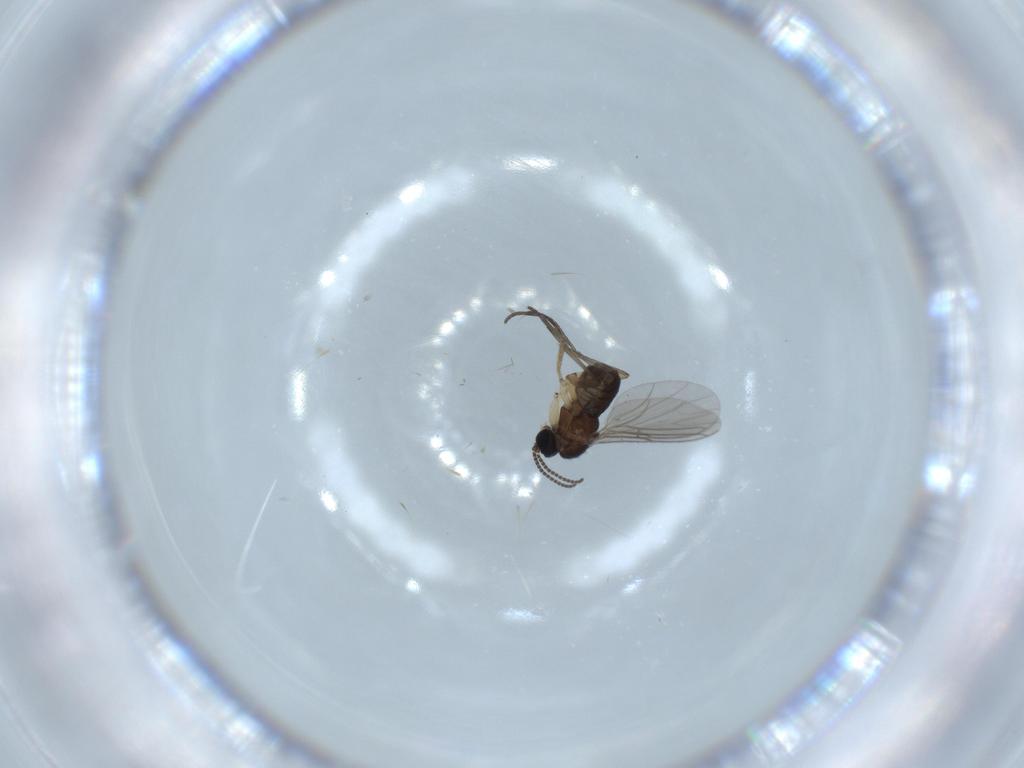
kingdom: Animalia
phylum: Arthropoda
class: Insecta
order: Diptera
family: Sciaridae
